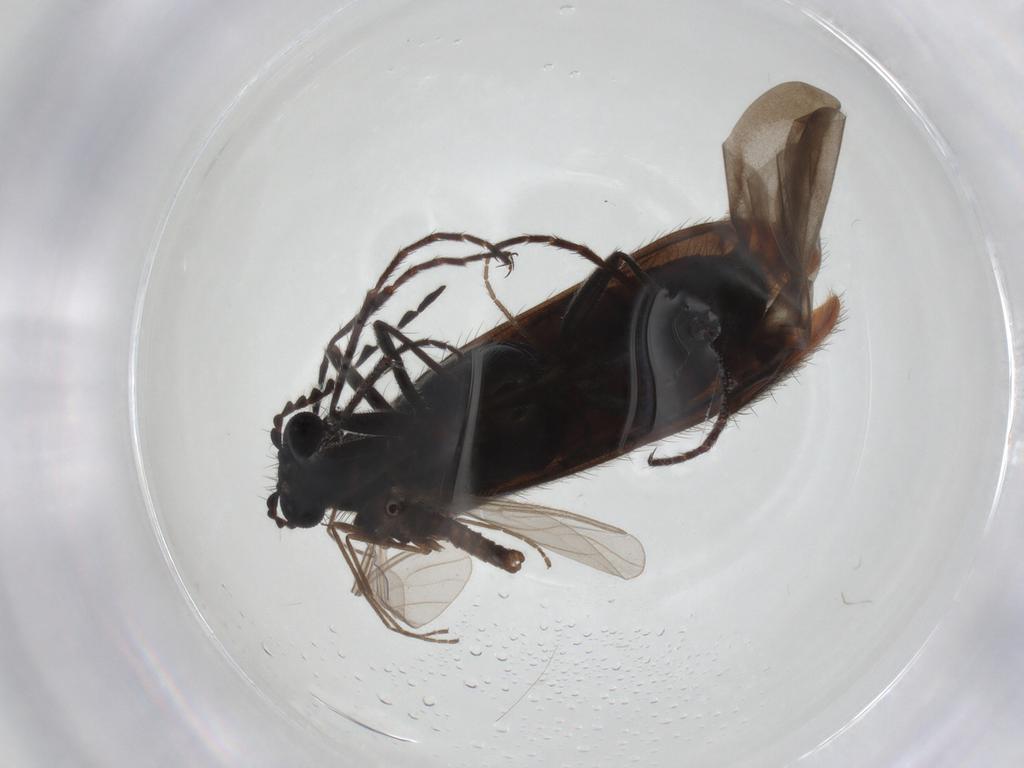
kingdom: Animalia
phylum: Arthropoda
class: Insecta
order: Coleoptera
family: Melyridae
